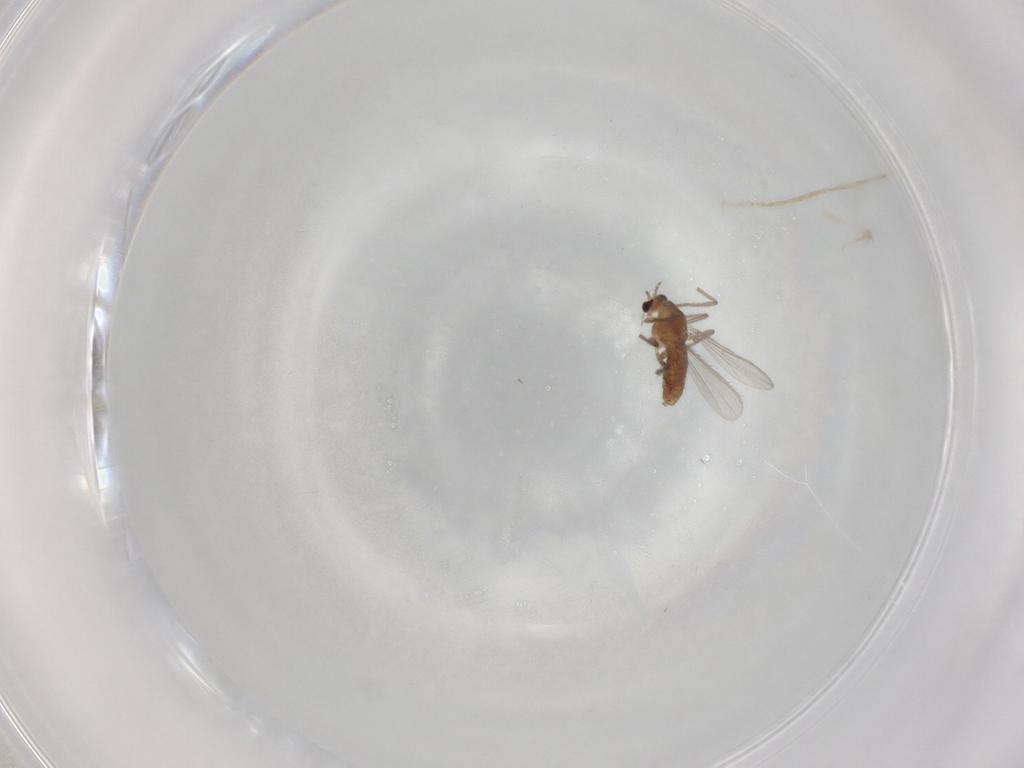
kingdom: Animalia
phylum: Arthropoda
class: Insecta
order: Diptera
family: Chironomidae
